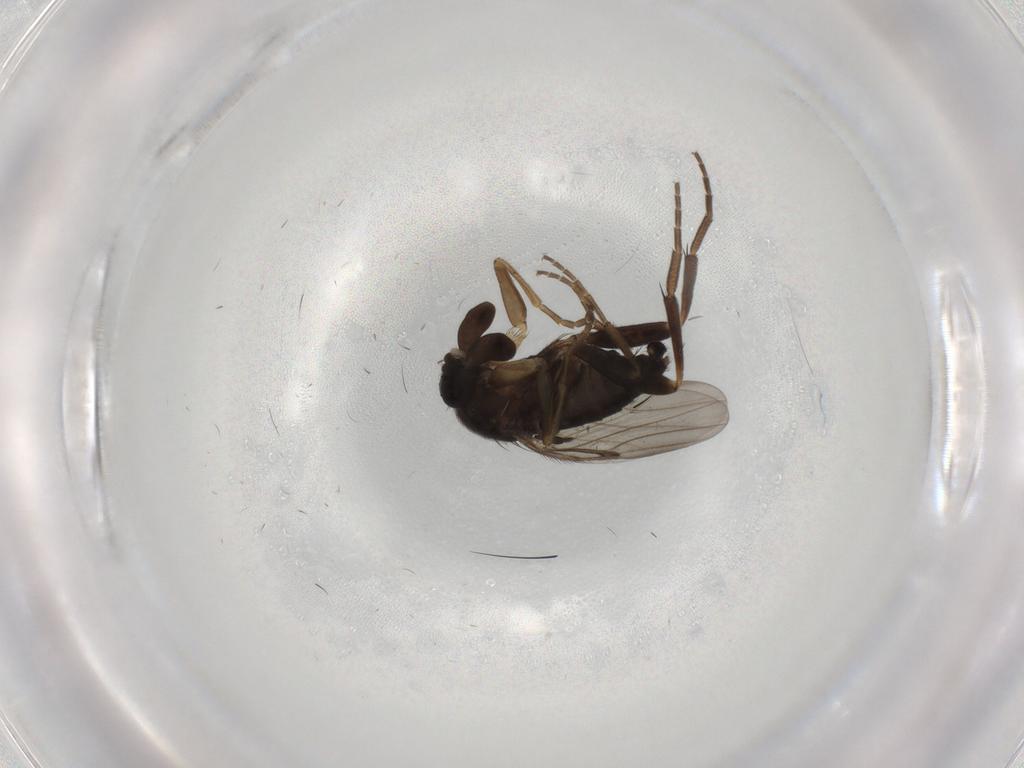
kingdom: Animalia
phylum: Arthropoda
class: Insecta
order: Diptera
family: Phoridae
